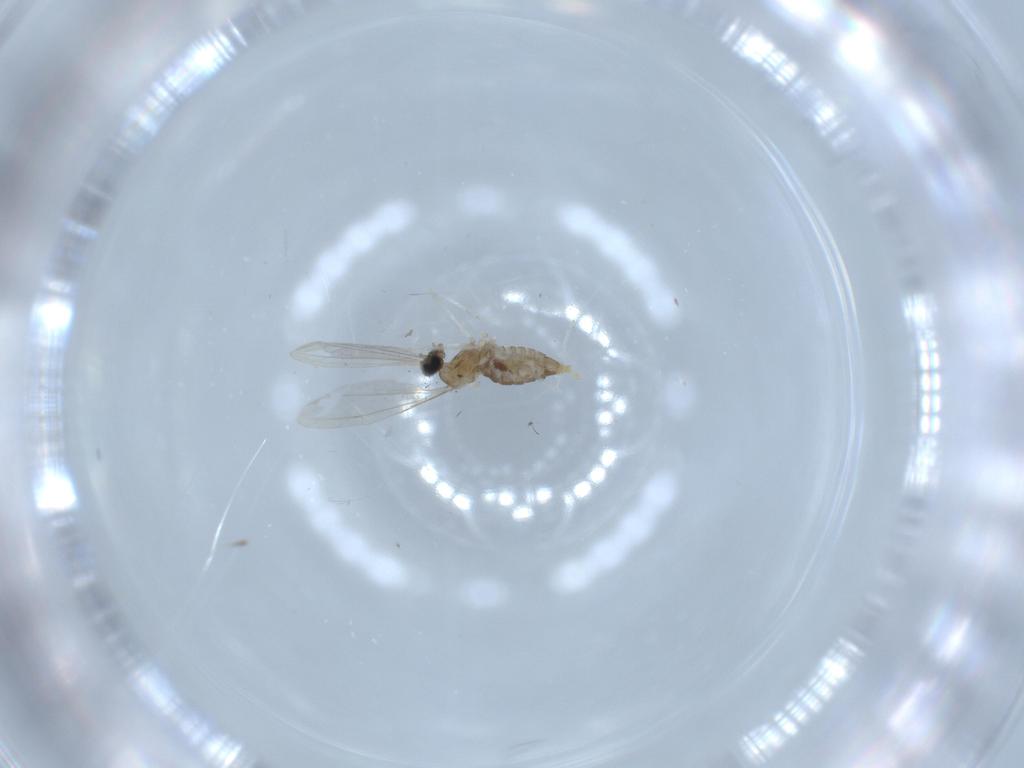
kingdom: Animalia
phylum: Arthropoda
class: Insecta
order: Diptera
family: Cecidomyiidae
